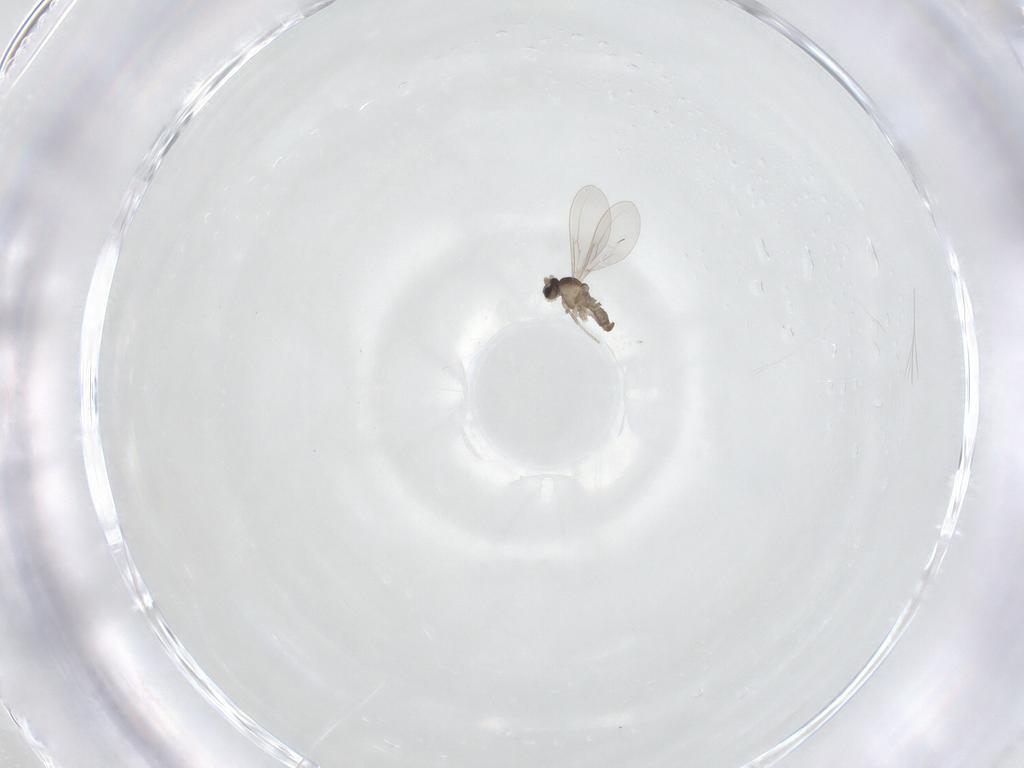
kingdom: Animalia
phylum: Arthropoda
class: Insecta
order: Diptera
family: Cecidomyiidae
